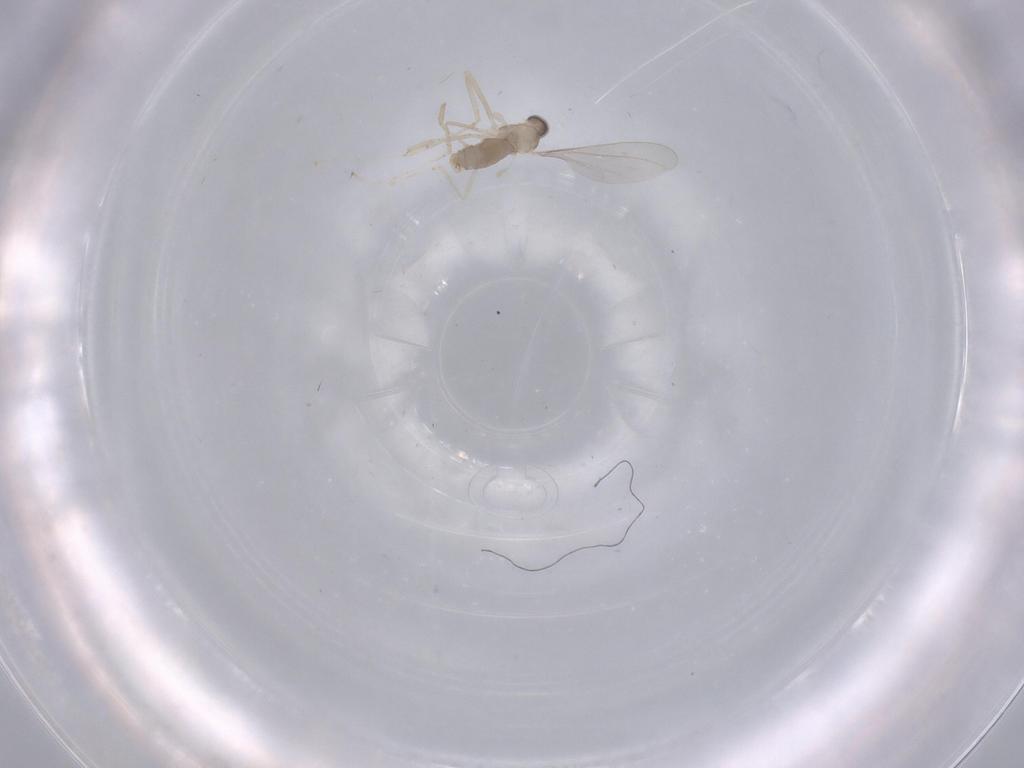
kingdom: Animalia
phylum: Arthropoda
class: Insecta
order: Diptera
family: Cecidomyiidae
